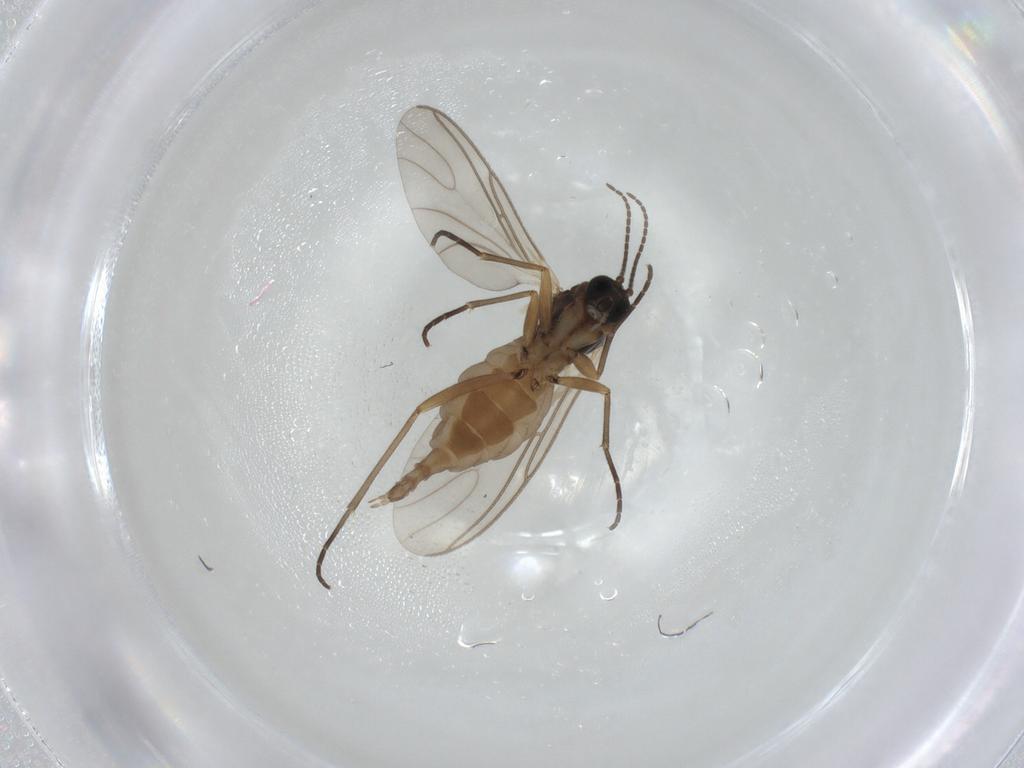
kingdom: Animalia
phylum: Arthropoda
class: Insecta
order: Diptera
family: Sciaridae
